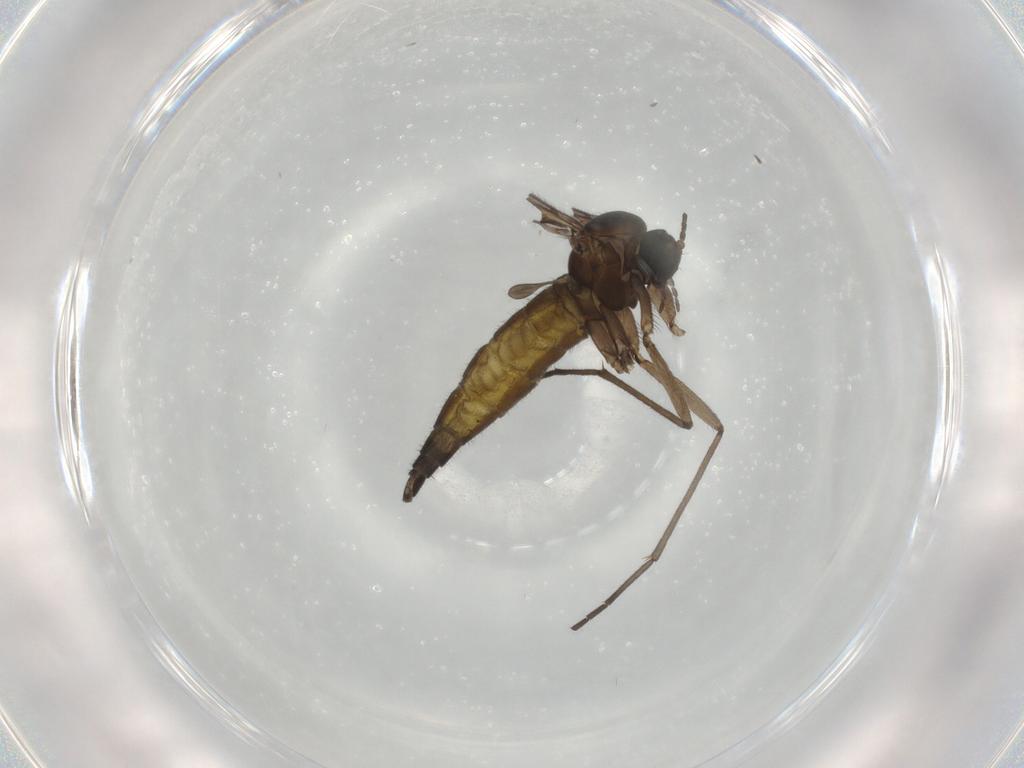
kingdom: Animalia
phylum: Arthropoda
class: Insecta
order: Diptera
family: Sciaridae
